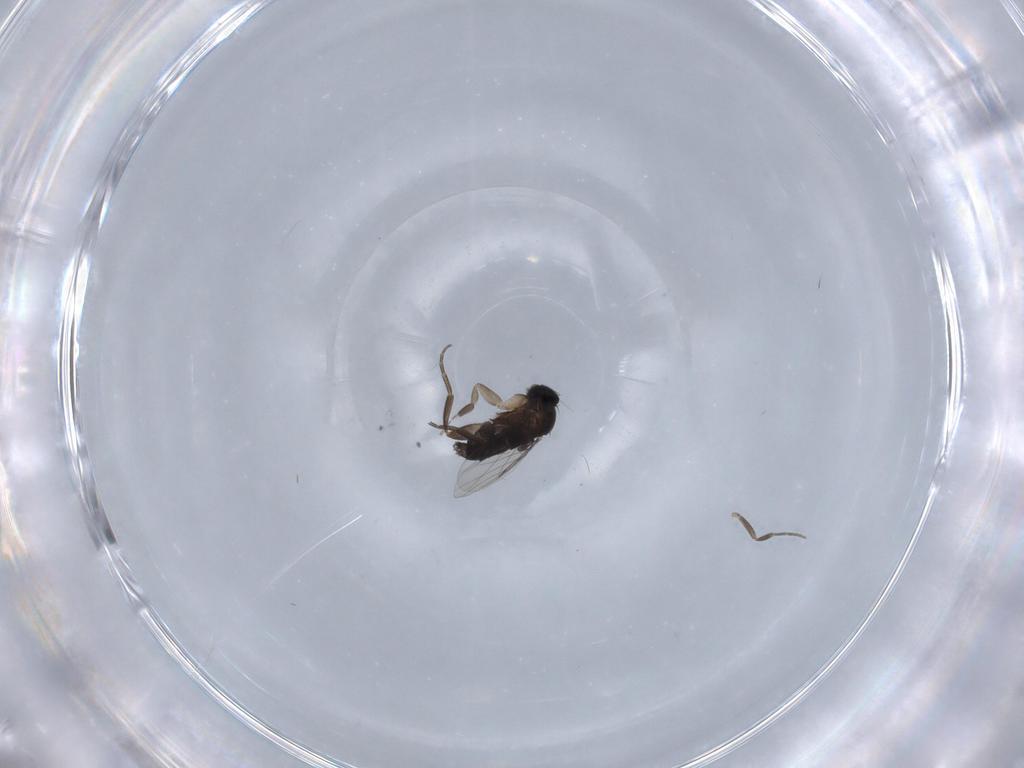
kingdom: Animalia
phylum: Arthropoda
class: Insecta
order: Diptera
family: Phoridae
